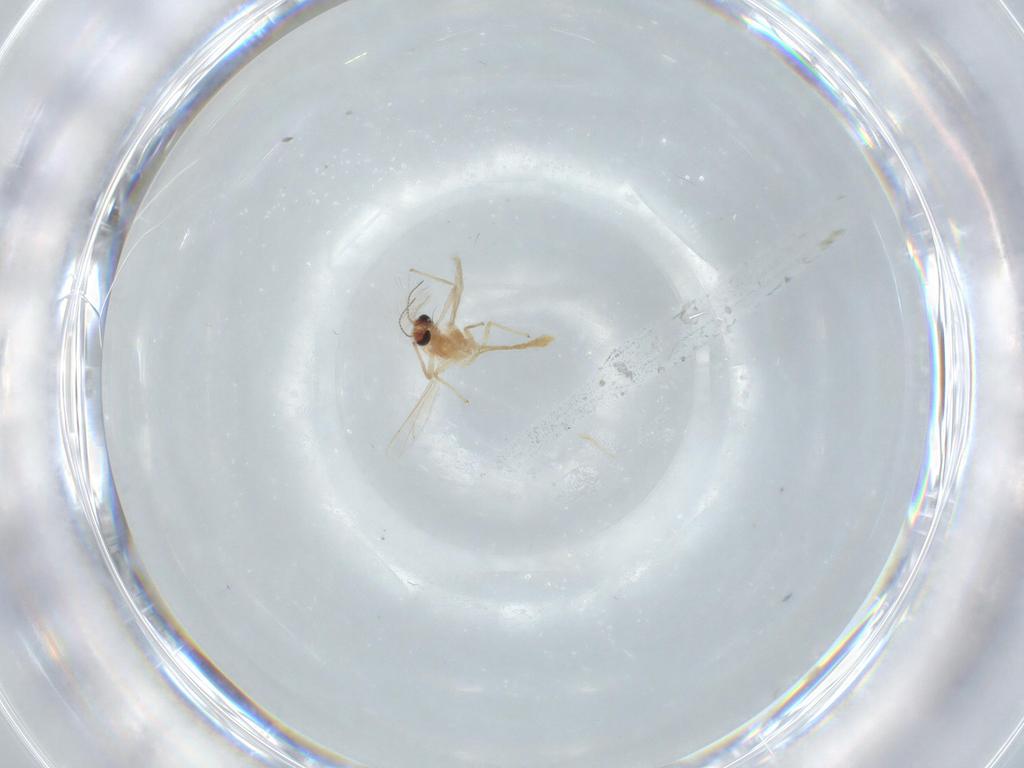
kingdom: Animalia
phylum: Arthropoda
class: Insecta
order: Diptera
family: Chironomidae
